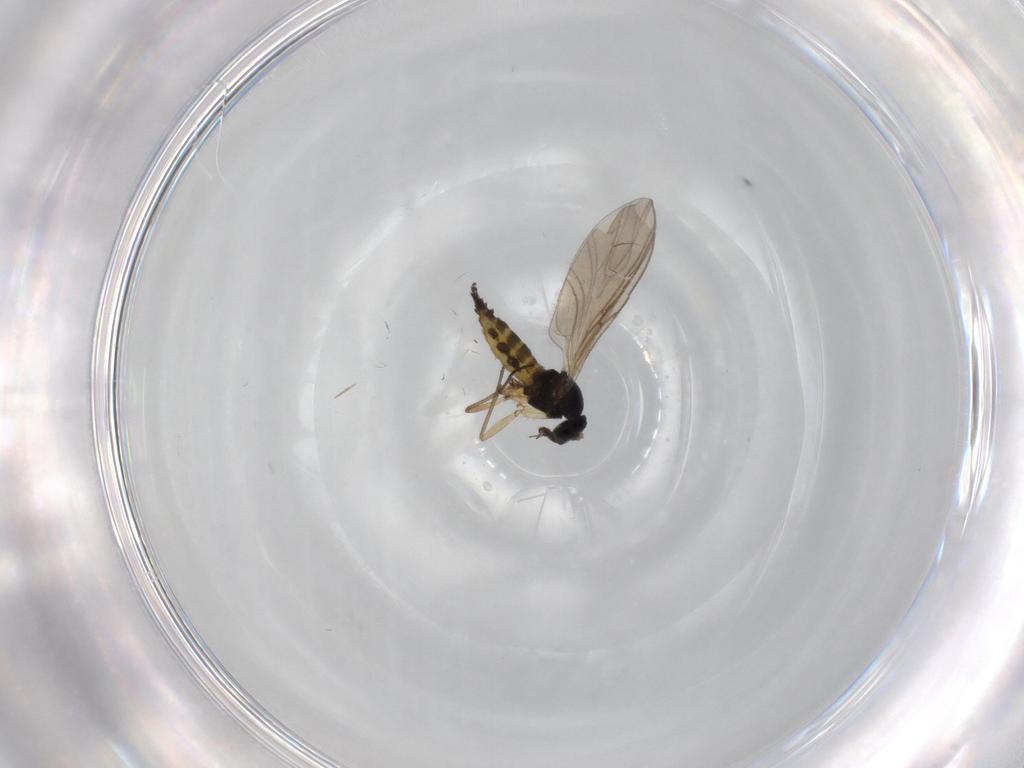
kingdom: Animalia
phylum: Arthropoda
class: Insecta
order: Diptera
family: Sciaridae
